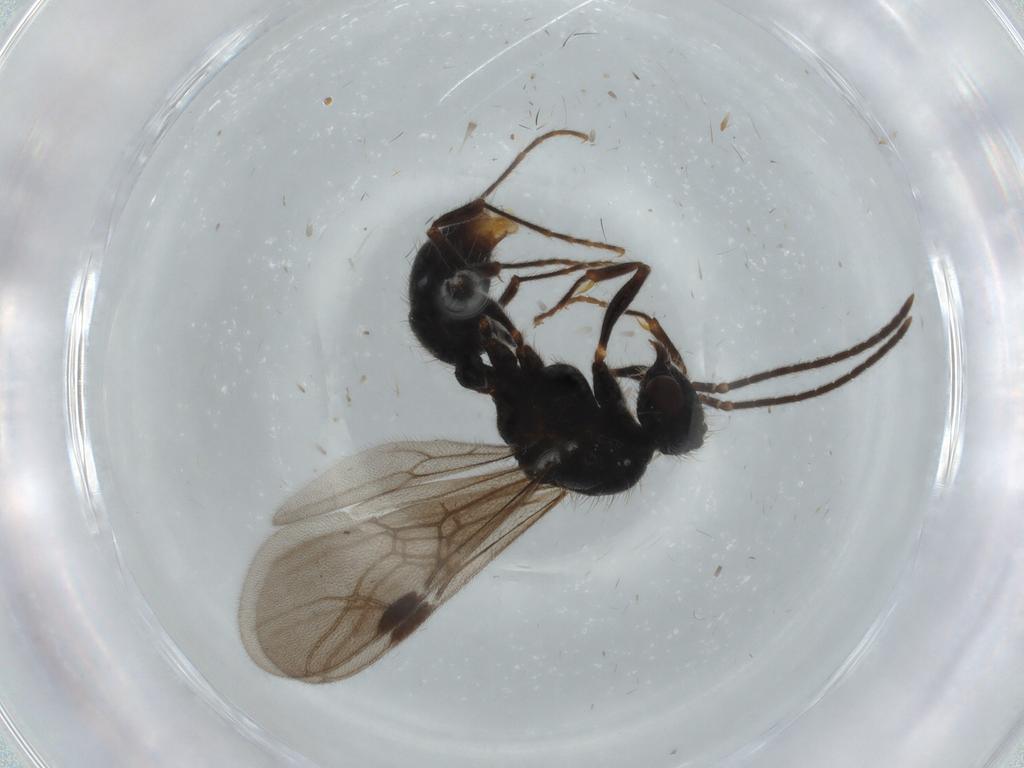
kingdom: Animalia
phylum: Arthropoda
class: Insecta
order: Hymenoptera
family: Formicidae
